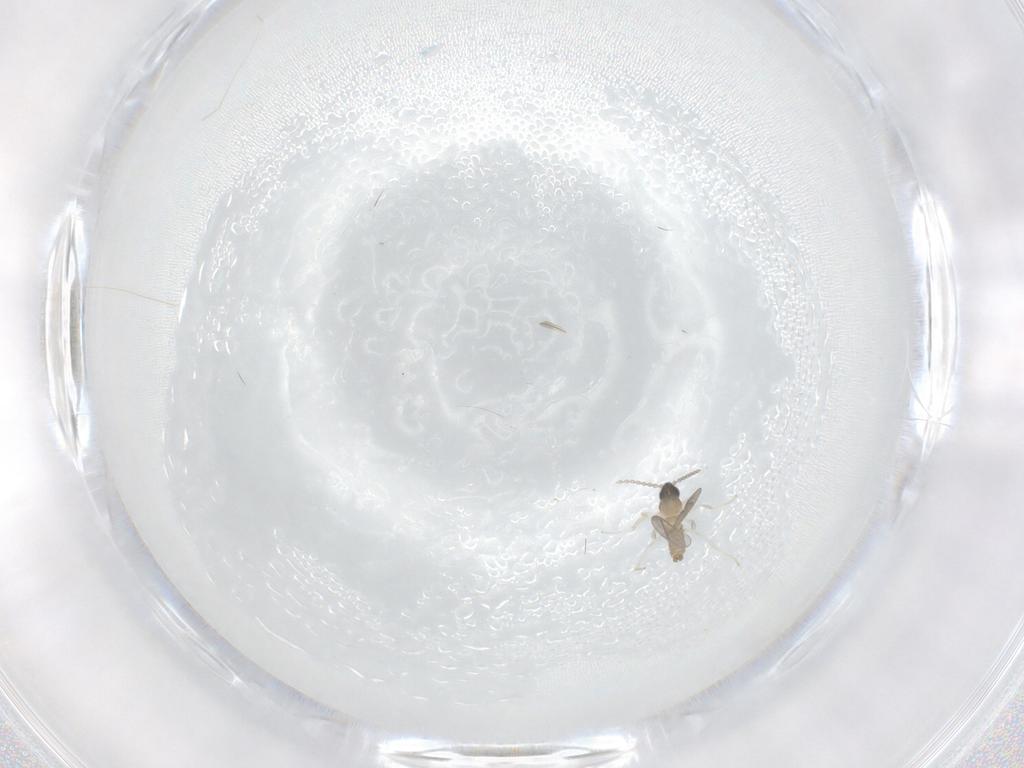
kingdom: Animalia
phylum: Arthropoda
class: Insecta
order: Diptera
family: Cecidomyiidae
